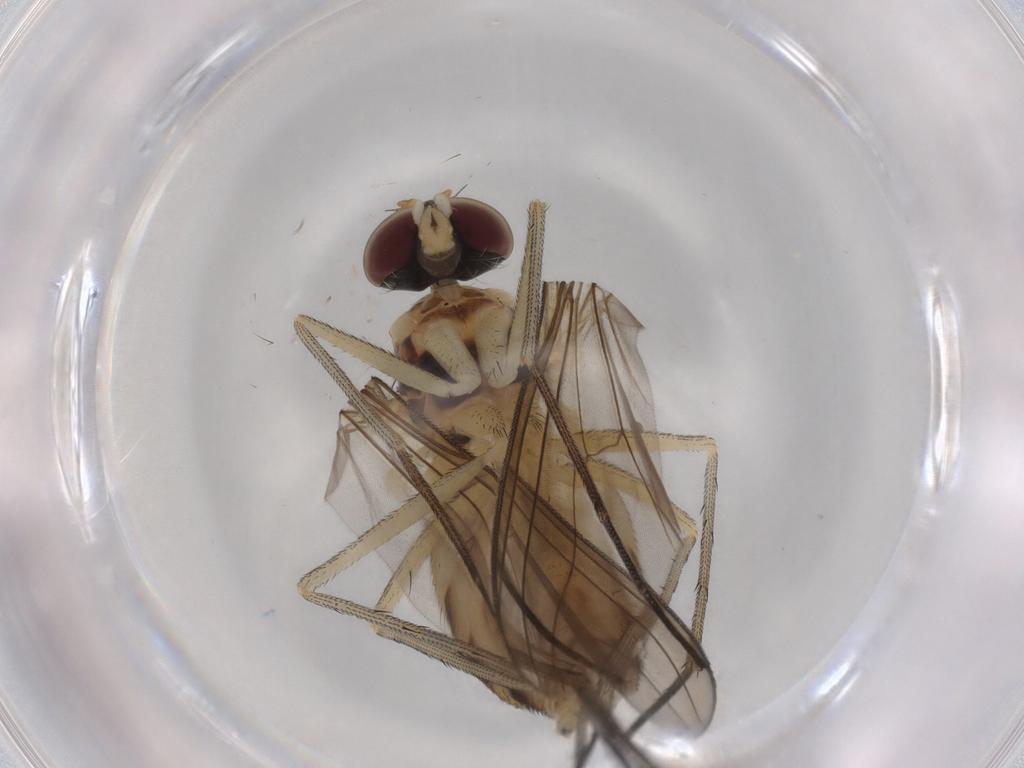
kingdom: Animalia
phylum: Arthropoda
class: Insecta
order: Diptera
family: Heleomyzidae
